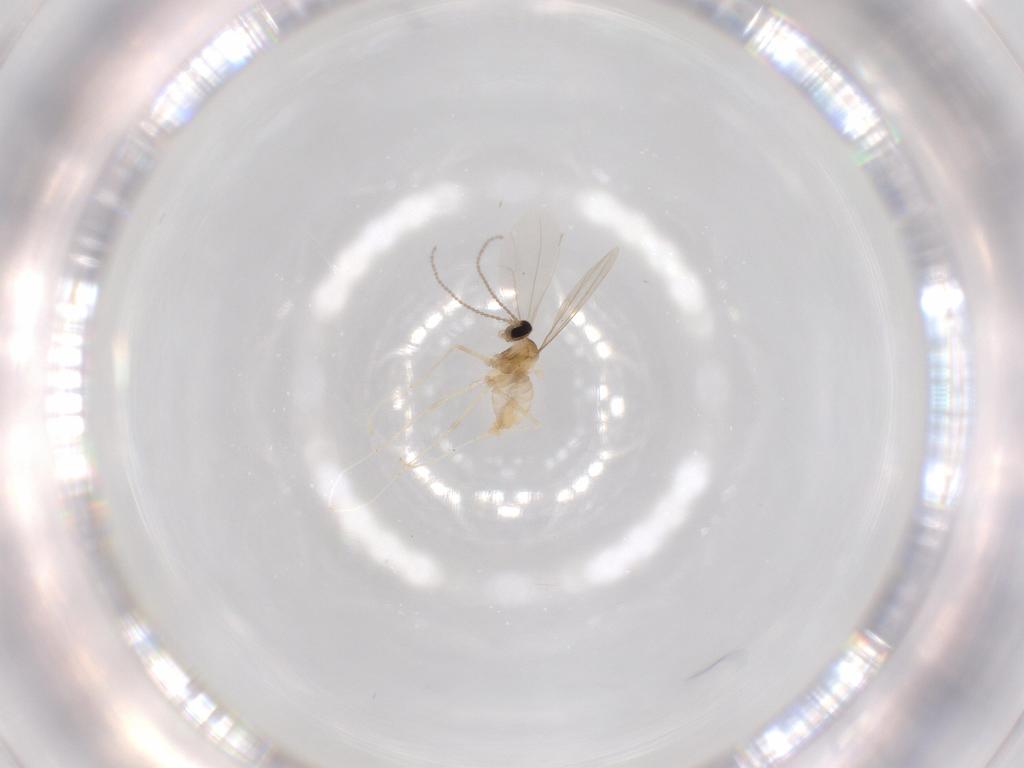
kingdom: Animalia
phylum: Arthropoda
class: Insecta
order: Diptera
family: Cecidomyiidae
